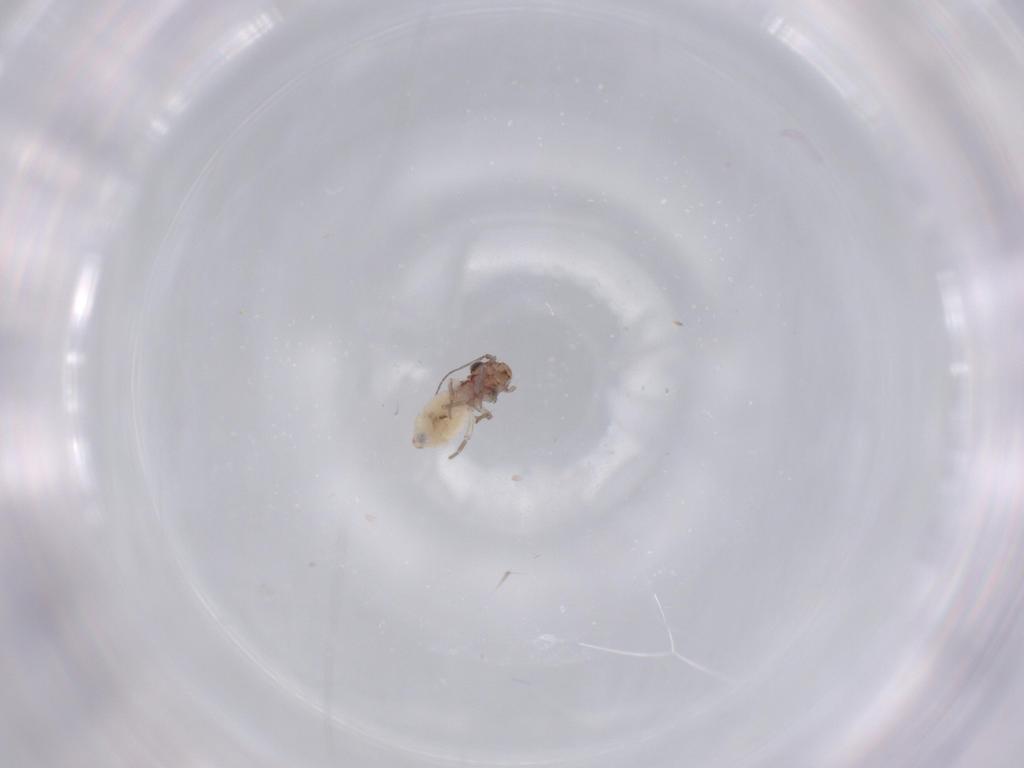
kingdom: Animalia
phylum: Arthropoda
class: Insecta
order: Psocodea
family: Lepidopsocidae
